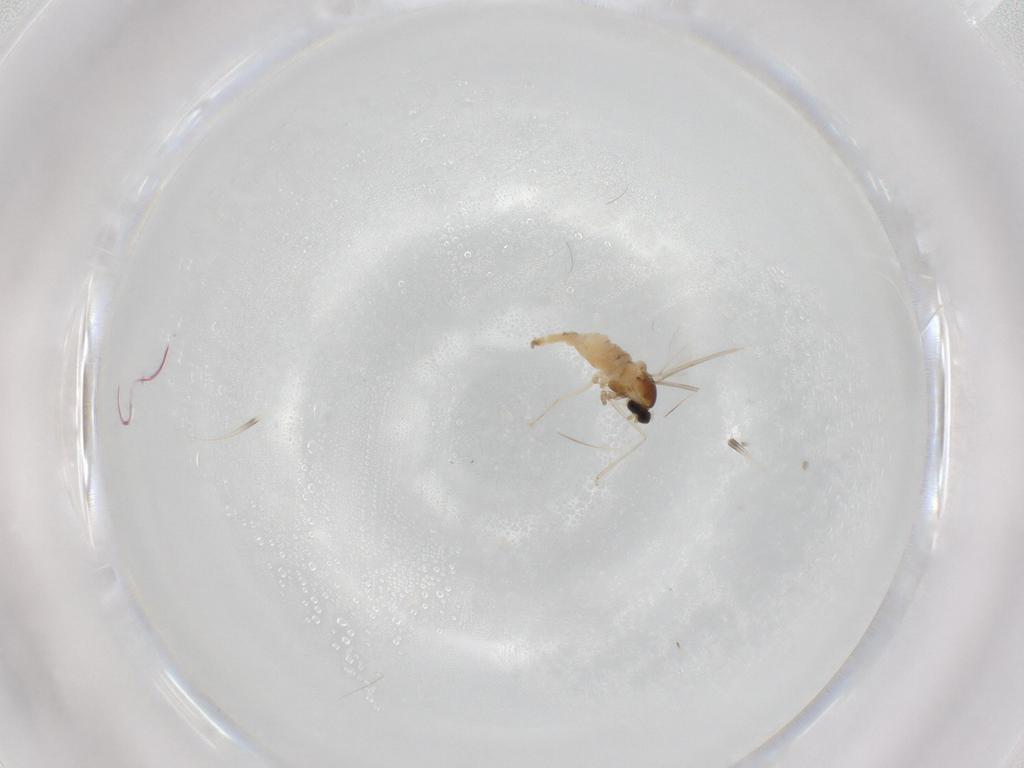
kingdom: Animalia
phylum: Arthropoda
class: Insecta
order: Diptera
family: Cecidomyiidae
